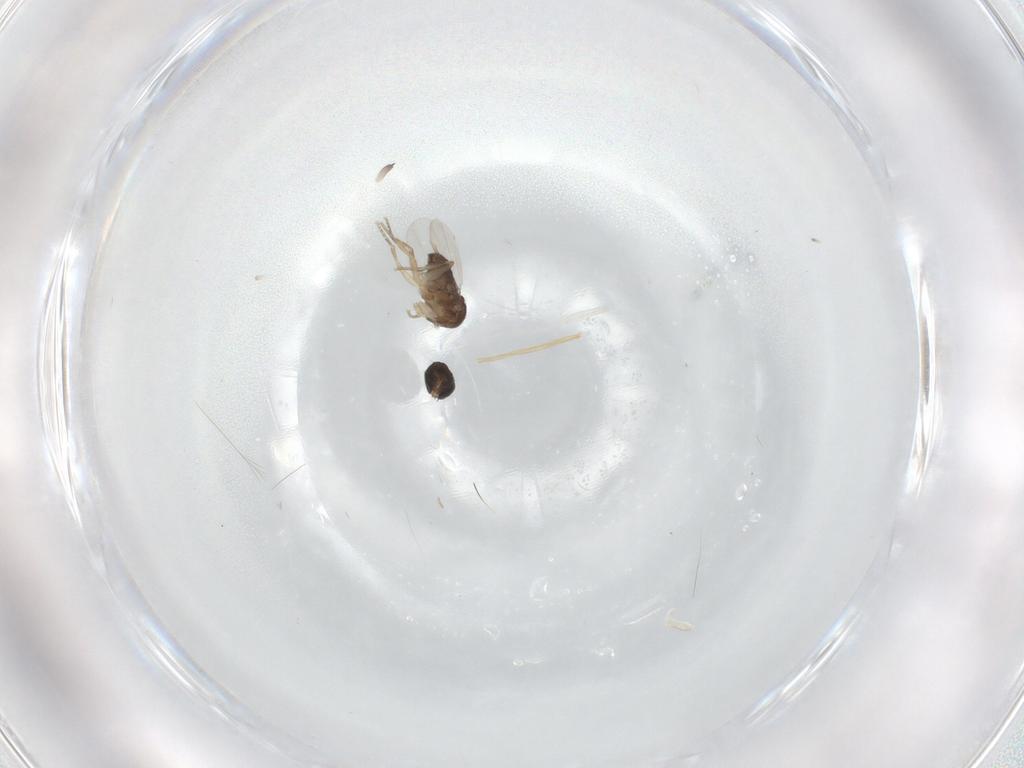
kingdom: Animalia
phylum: Arthropoda
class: Insecta
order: Diptera
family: Phoridae
